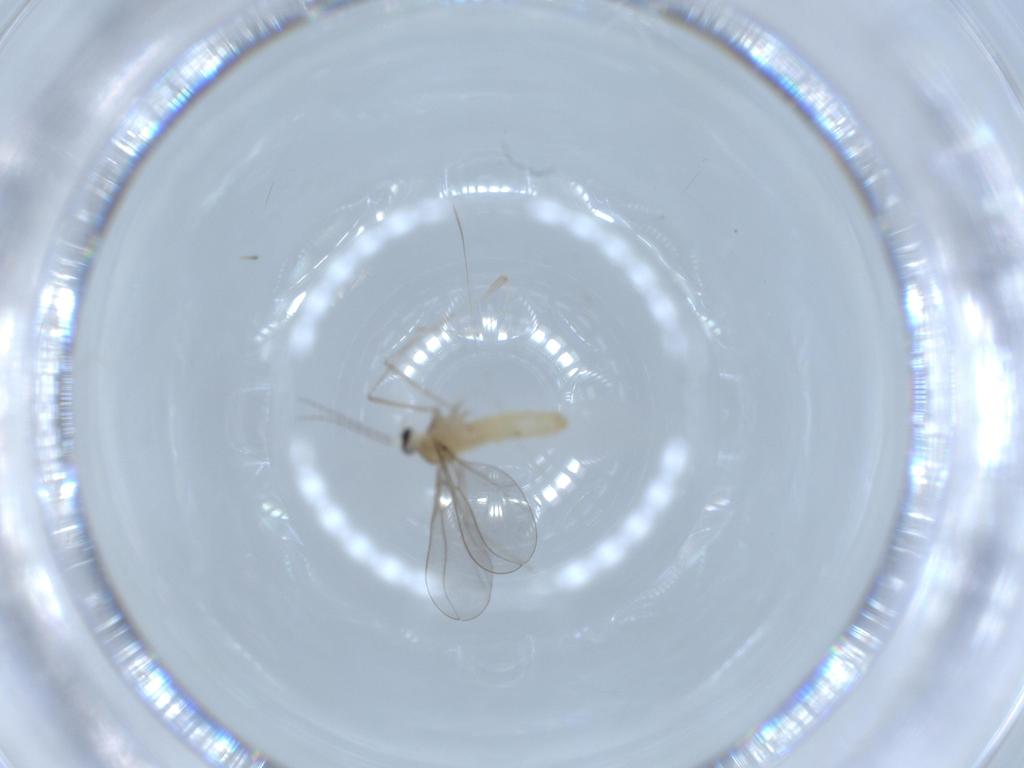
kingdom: Animalia
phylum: Arthropoda
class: Insecta
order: Diptera
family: Cecidomyiidae
